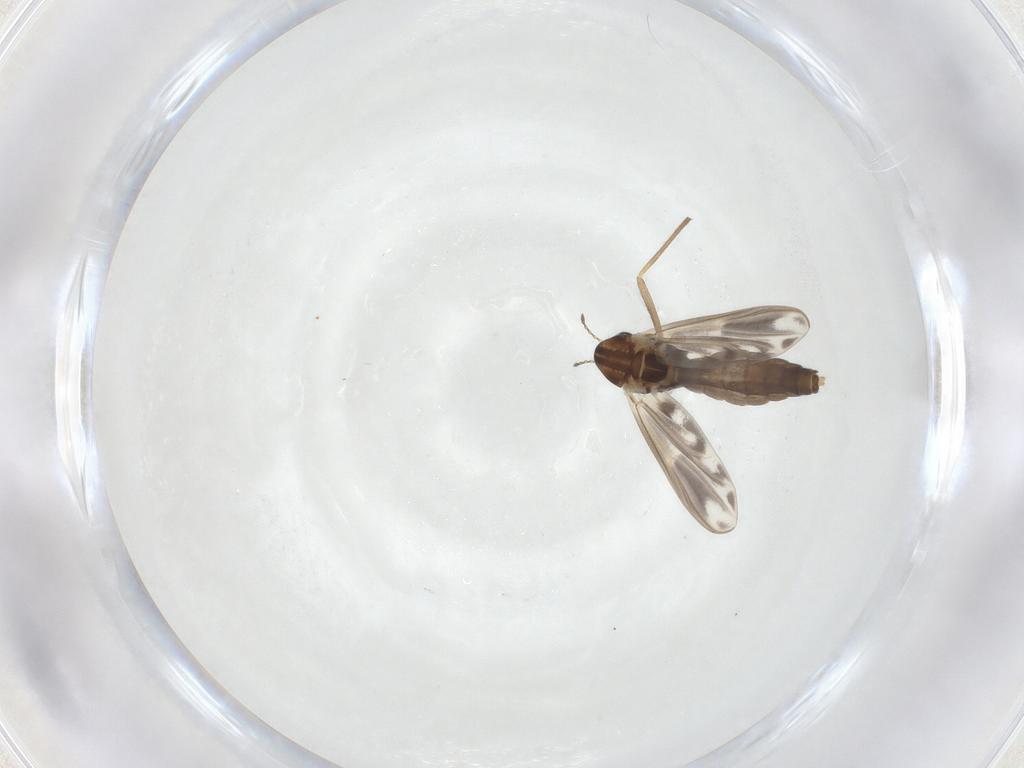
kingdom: Animalia
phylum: Arthropoda
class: Insecta
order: Diptera
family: Chironomidae
